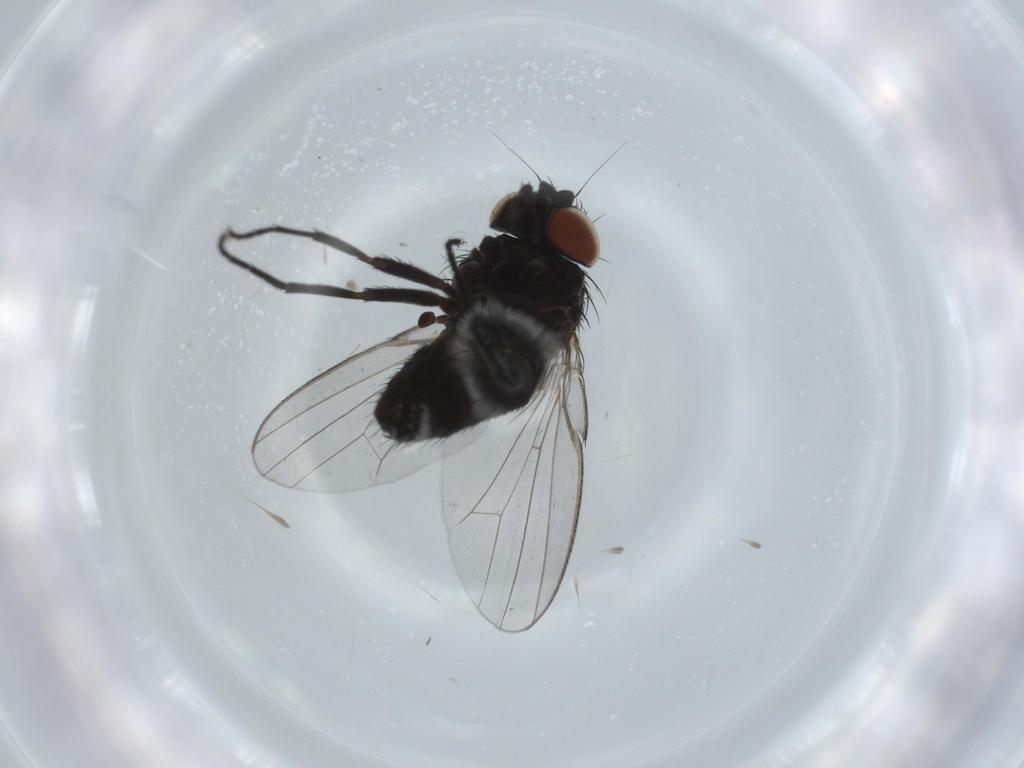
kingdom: Animalia
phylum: Arthropoda
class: Insecta
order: Diptera
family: Milichiidae
